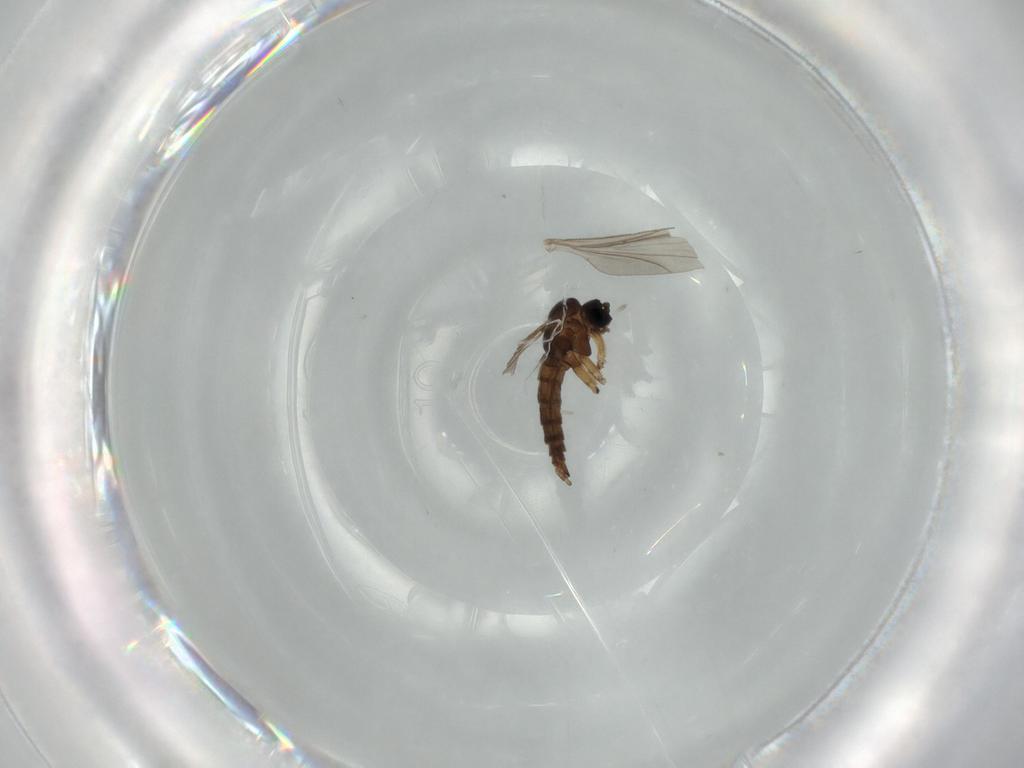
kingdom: Animalia
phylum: Arthropoda
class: Insecta
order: Diptera
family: Sciaridae
